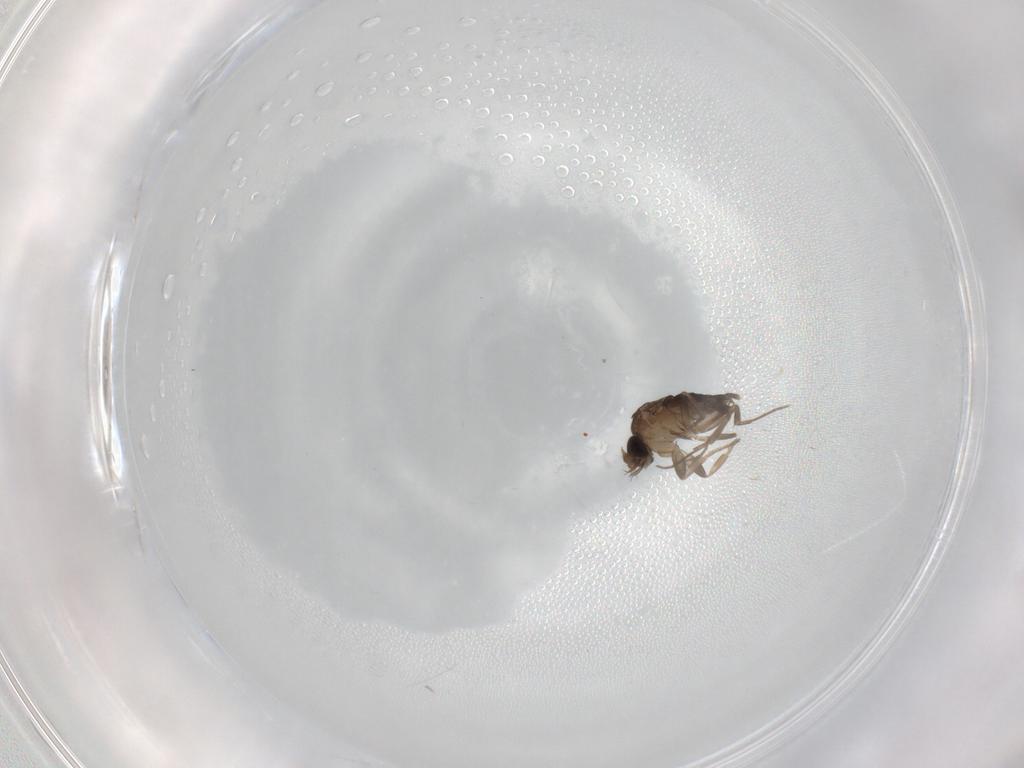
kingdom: Animalia
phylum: Arthropoda
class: Insecta
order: Diptera
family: Phoridae
